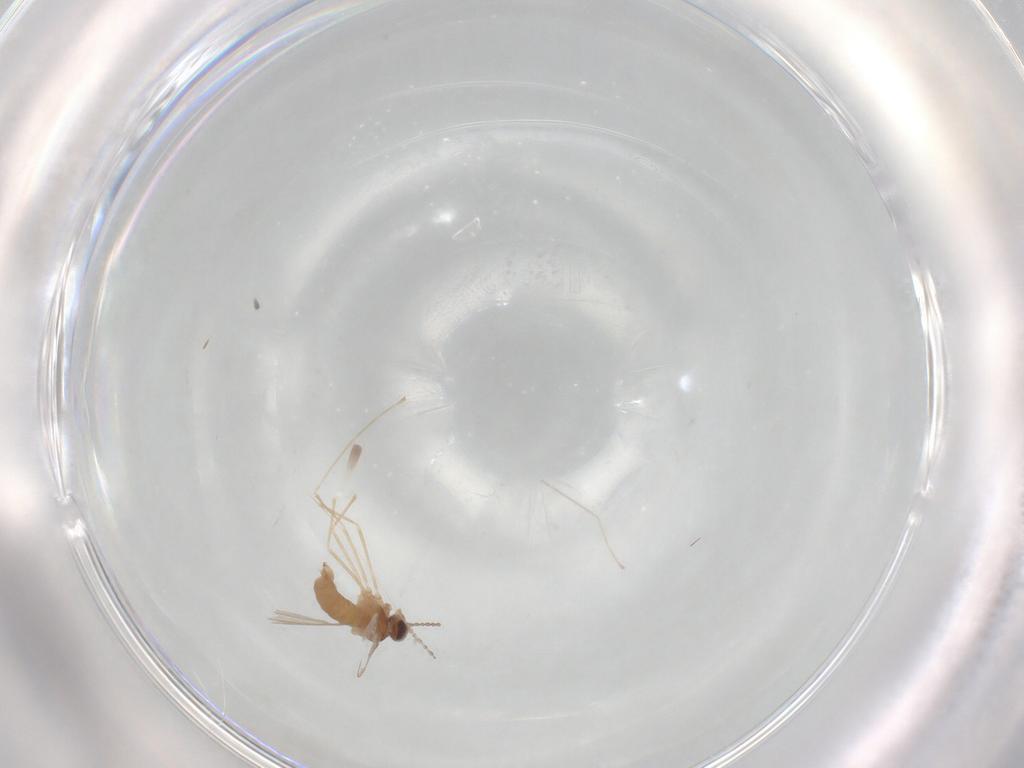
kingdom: Animalia
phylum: Arthropoda
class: Insecta
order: Diptera
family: Cecidomyiidae
